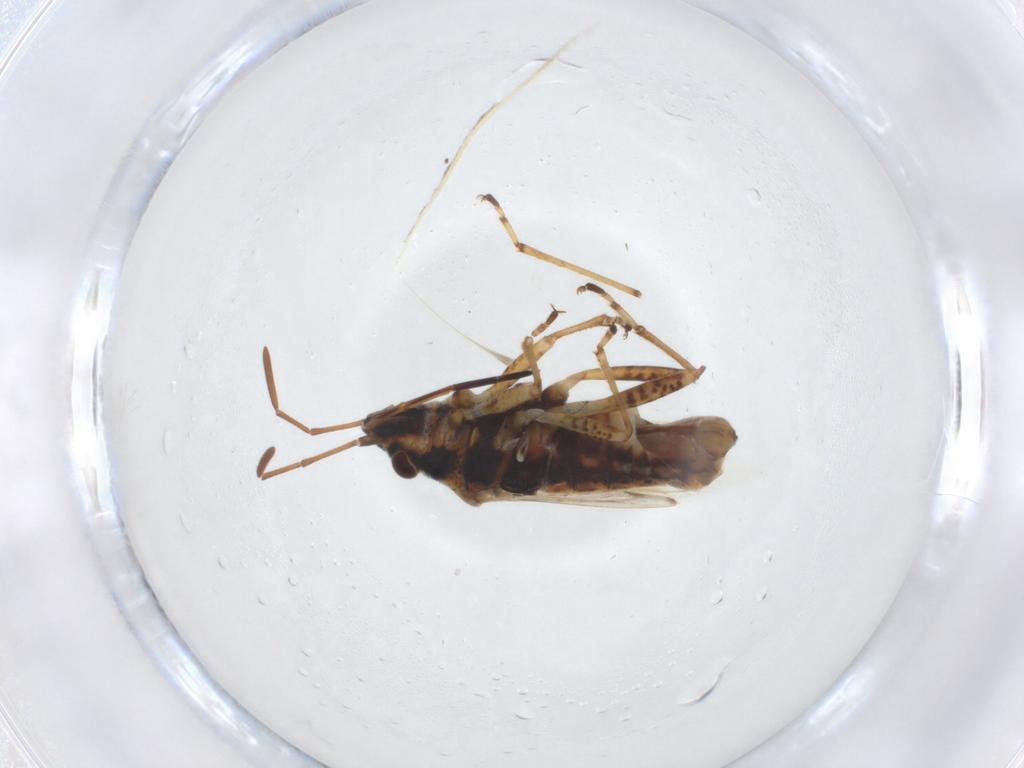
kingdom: Animalia
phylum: Arthropoda
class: Insecta
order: Hemiptera
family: Lygaeidae
